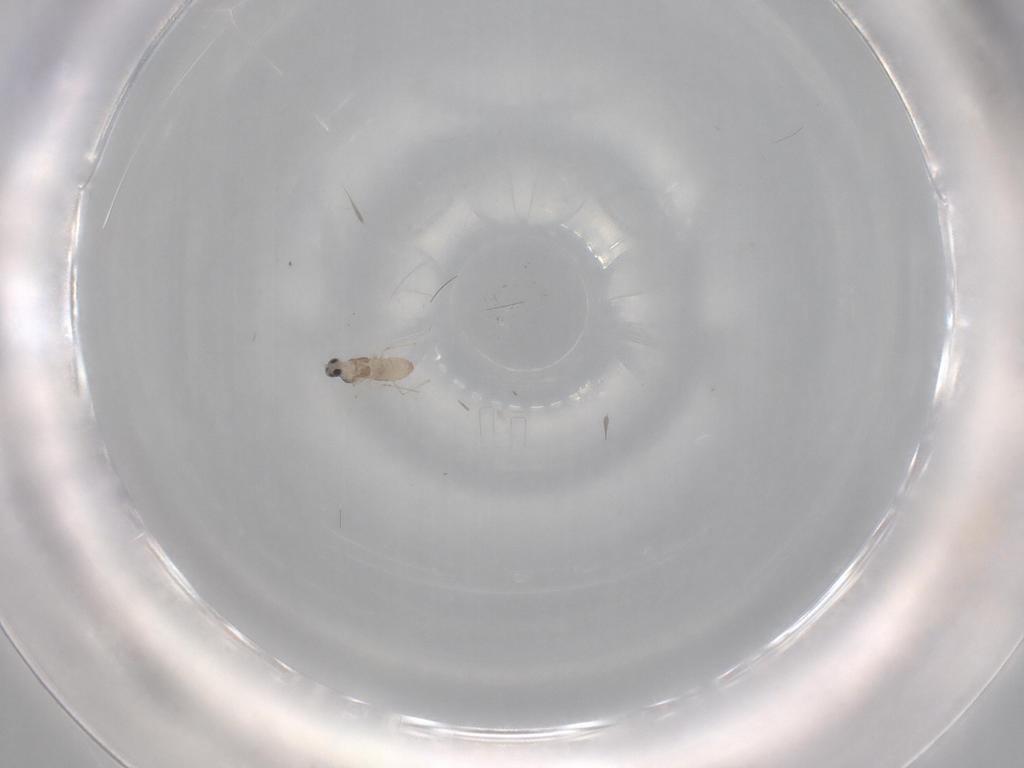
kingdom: Animalia
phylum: Arthropoda
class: Insecta
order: Diptera
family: Cecidomyiidae
